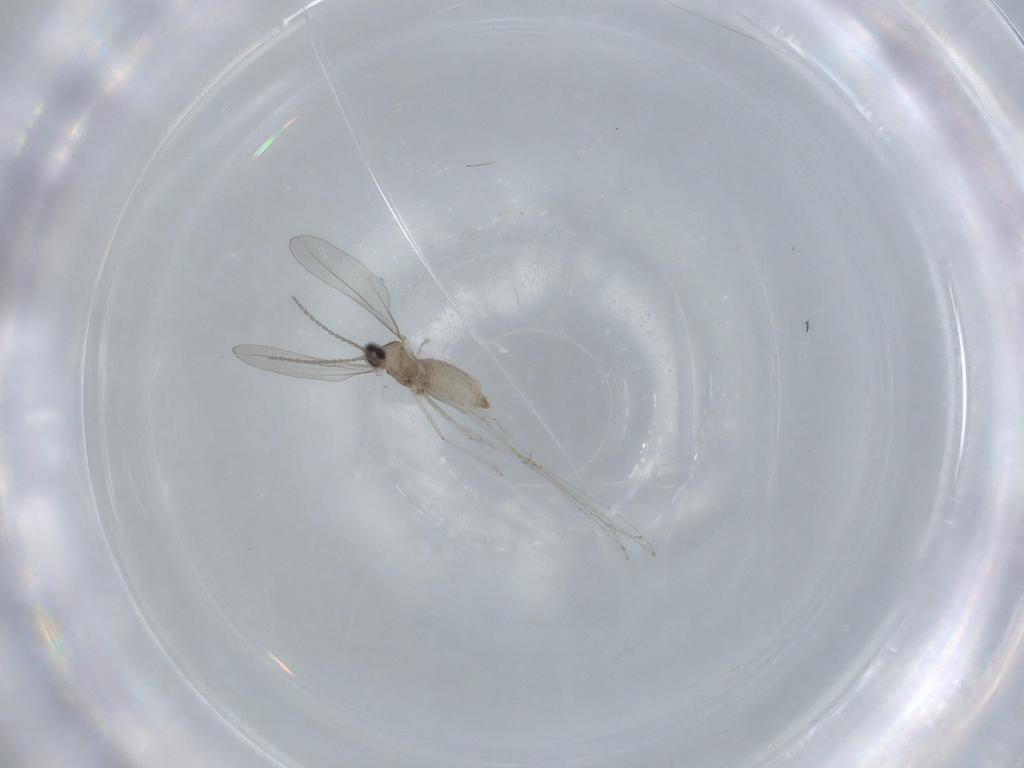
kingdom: Animalia
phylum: Arthropoda
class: Insecta
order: Diptera
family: Cecidomyiidae
